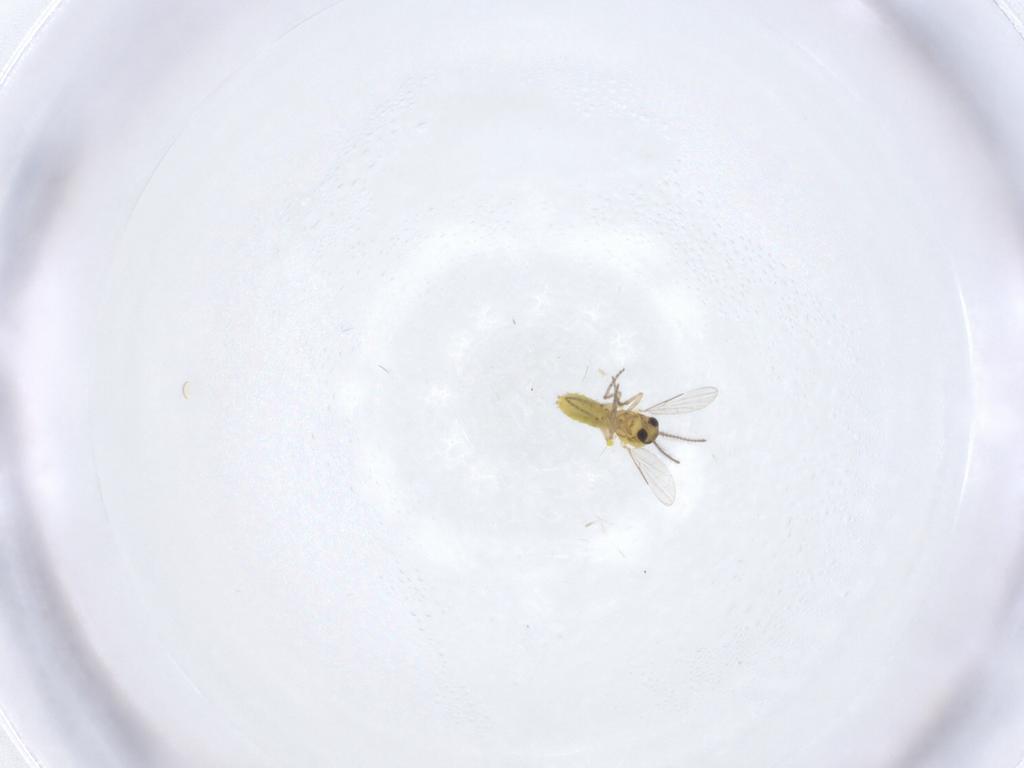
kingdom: Animalia
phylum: Arthropoda
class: Insecta
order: Diptera
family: Ceratopogonidae
